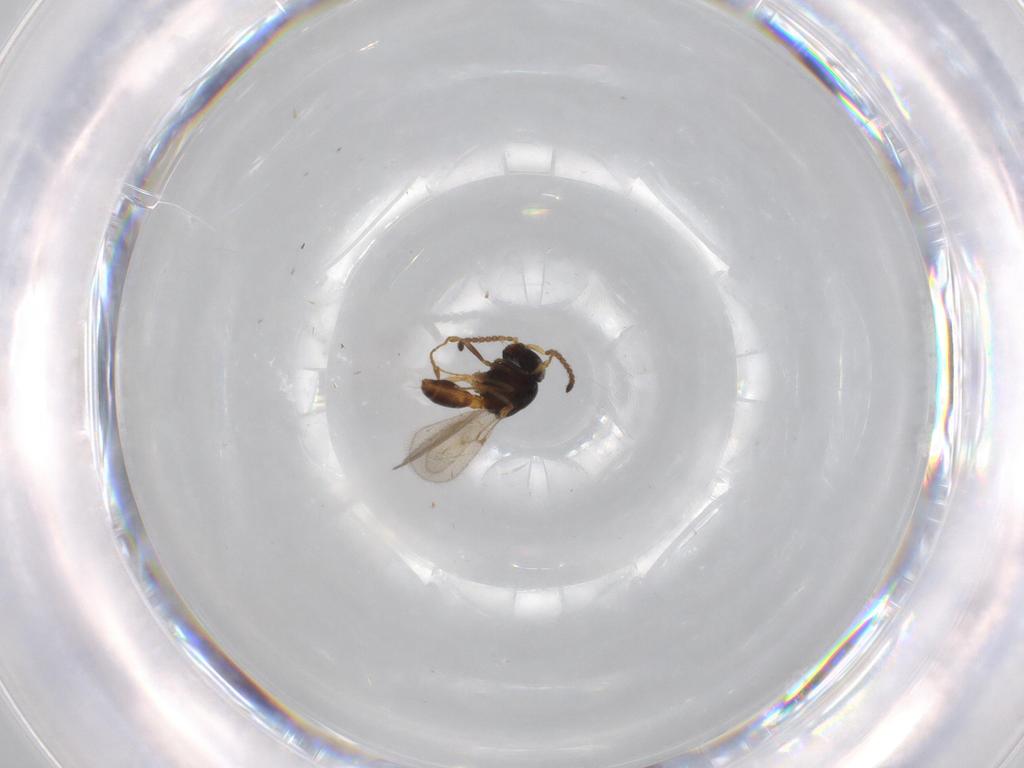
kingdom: Animalia
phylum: Arthropoda
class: Insecta
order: Hymenoptera
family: Scelionidae
